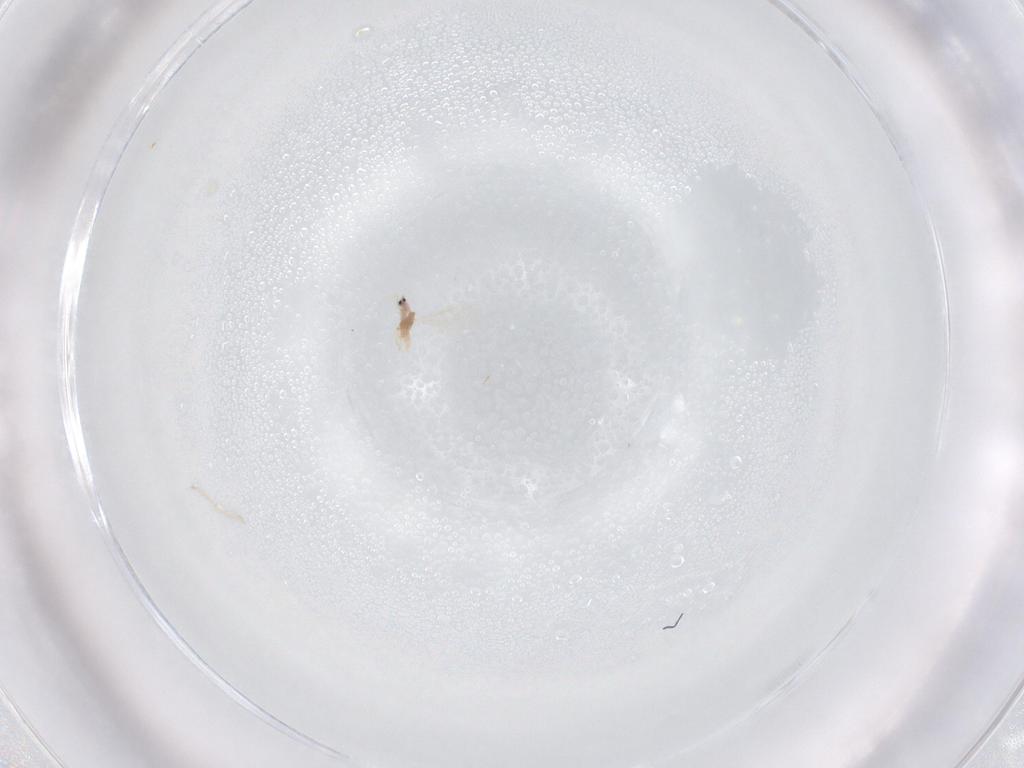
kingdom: Animalia
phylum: Arthropoda
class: Insecta
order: Hemiptera
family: Diaspididae
